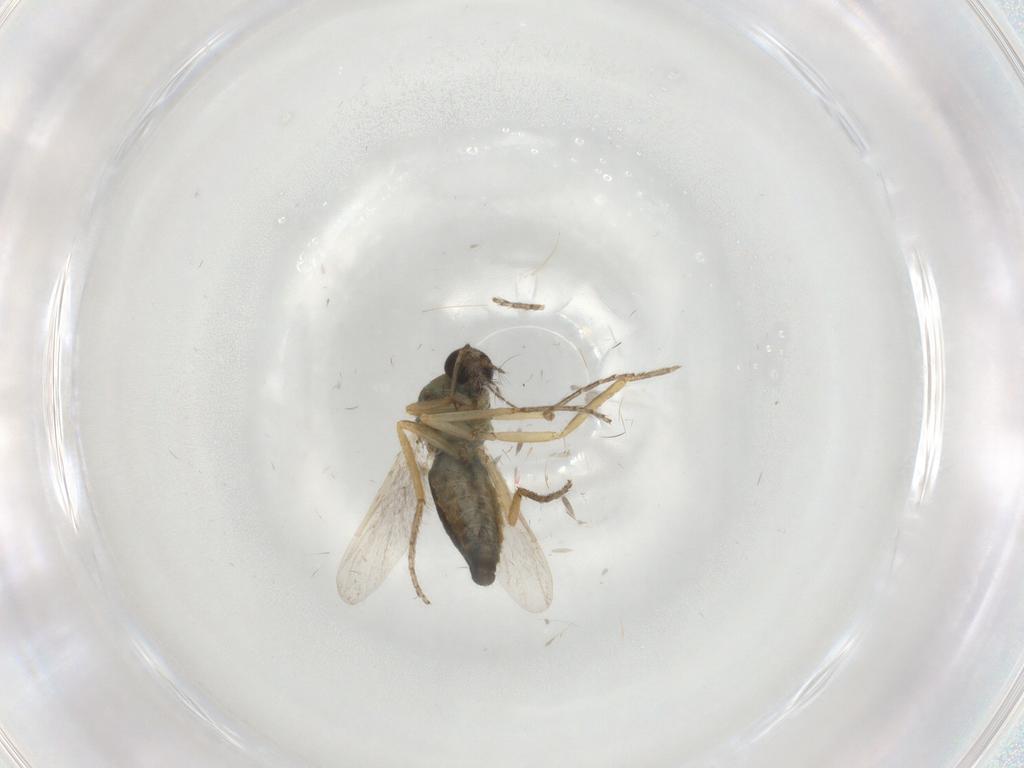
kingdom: Animalia
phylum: Arthropoda
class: Insecta
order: Diptera
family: Ceratopogonidae
